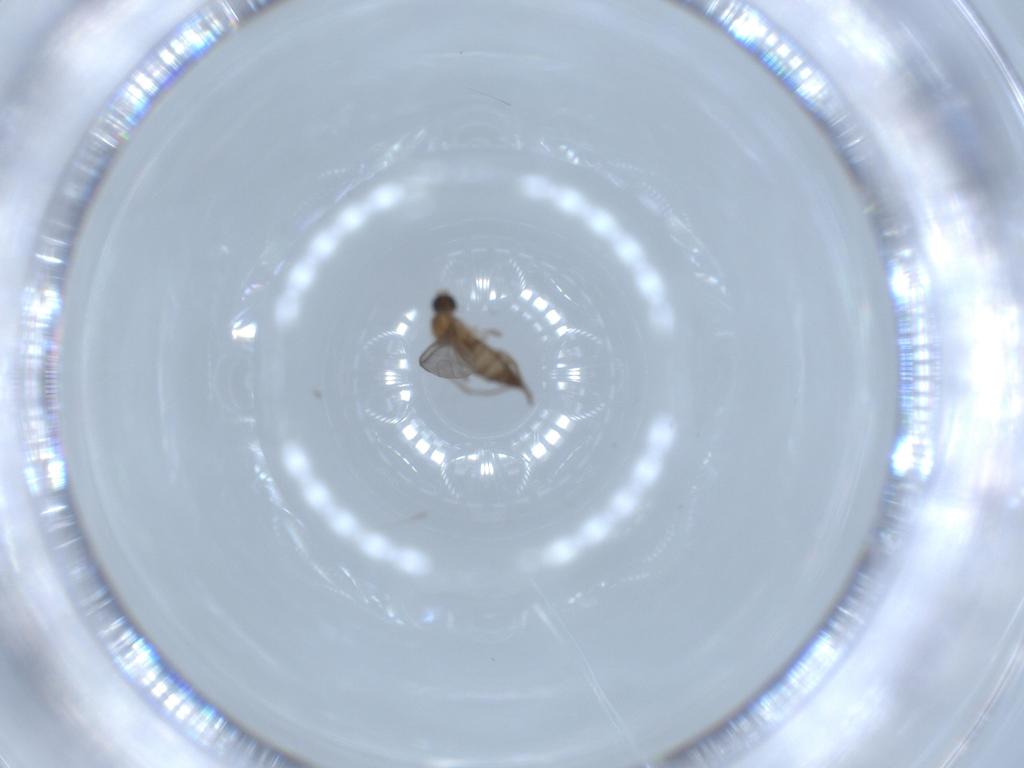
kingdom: Animalia
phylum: Arthropoda
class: Insecta
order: Diptera
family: Sciaridae
